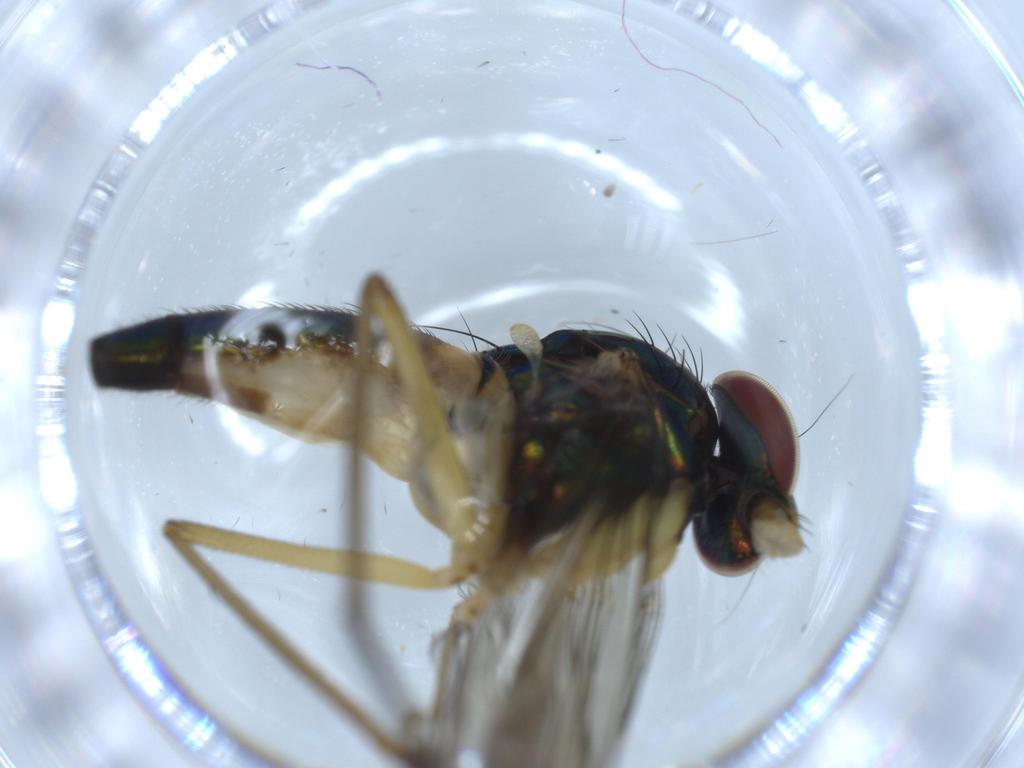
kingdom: Animalia
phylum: Arthropoda
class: Insecta
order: Diptera
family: Dolichopodidae
